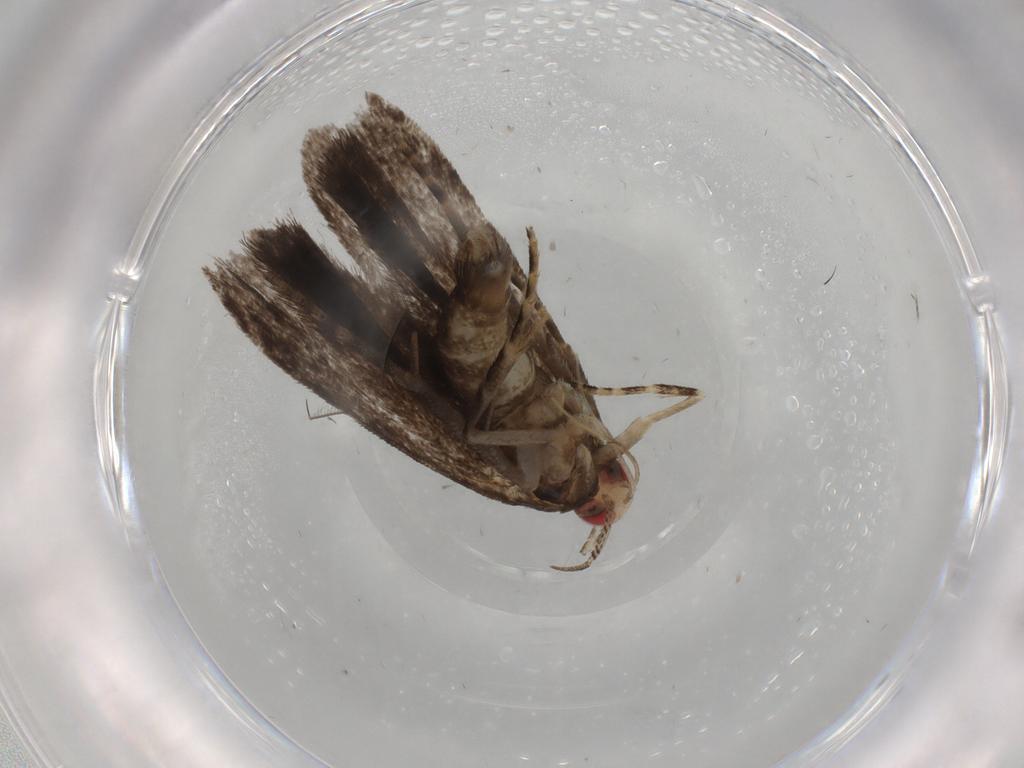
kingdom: Animalia
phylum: Arthropoda
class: Insecta
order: Lepidoptera
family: Gelechiidae
